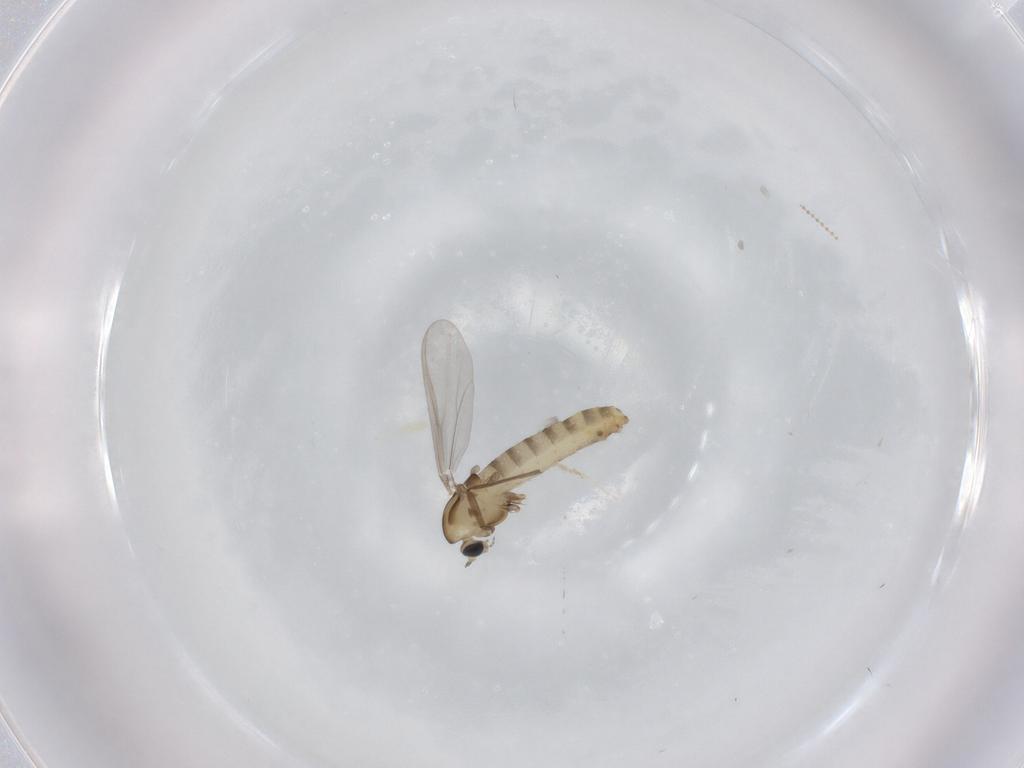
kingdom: Animalia
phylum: Arthropoda
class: Insecta
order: Diptera
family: Chironomidae
